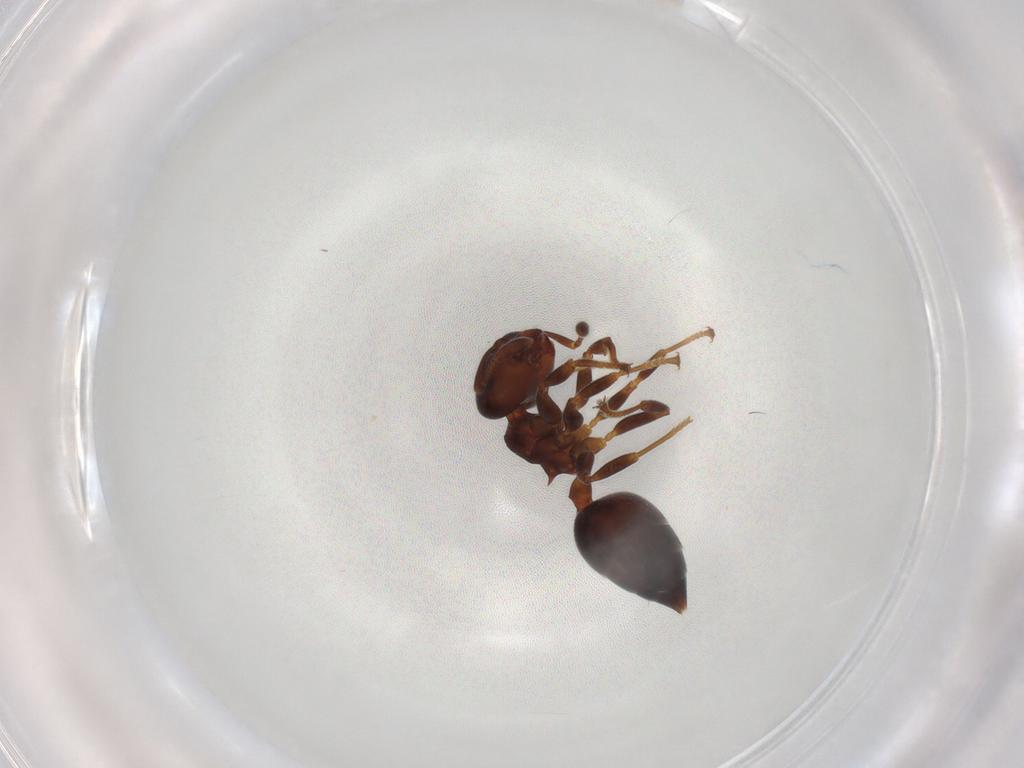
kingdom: Animalia
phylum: Arthropoda
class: Insecta
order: Hymenoptera
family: Formicidae
